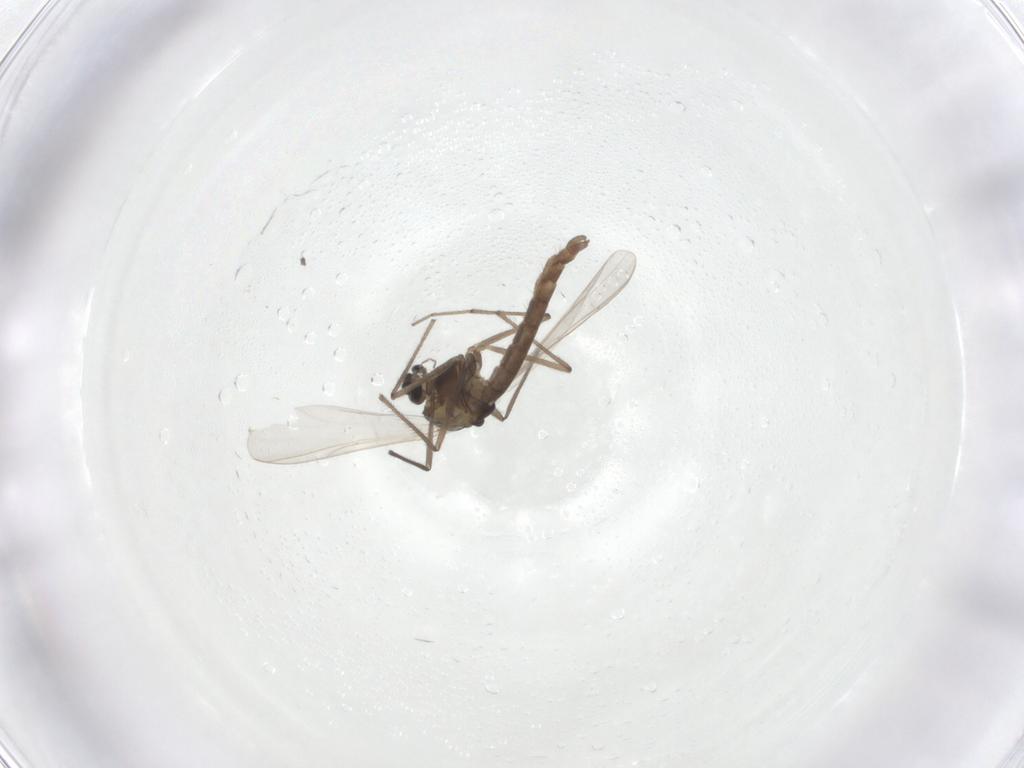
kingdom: Animalia
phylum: Arthropoda
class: Insecta
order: Diptera
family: Chironomidae
